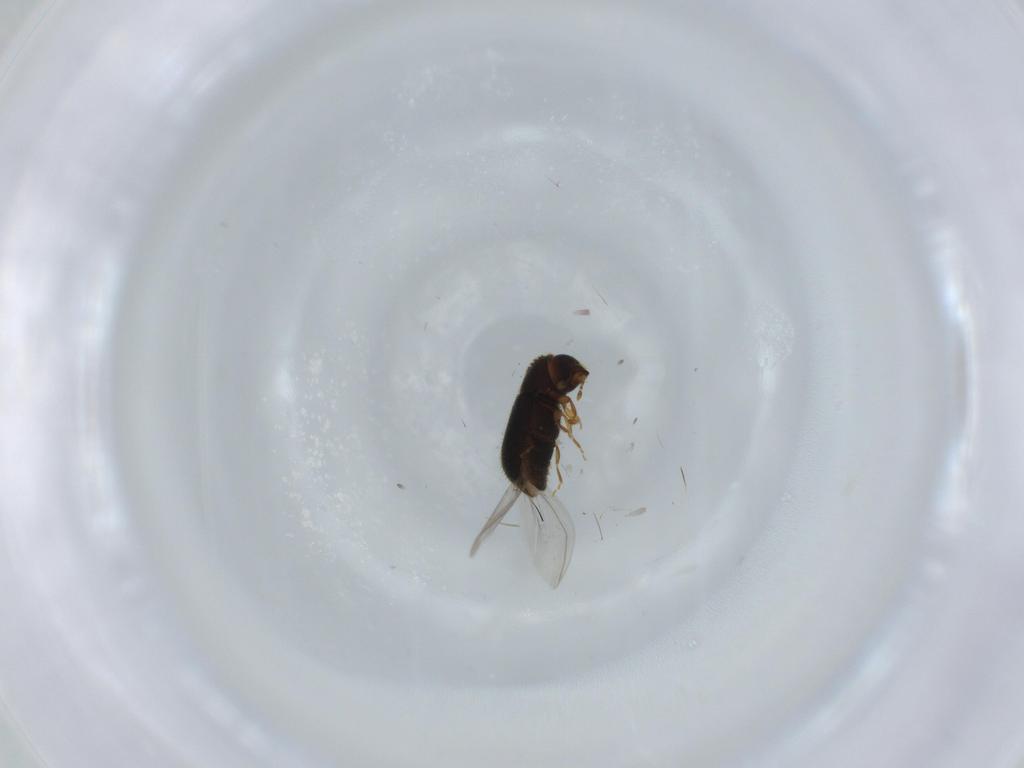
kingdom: Animalia
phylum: Arthropoda
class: Insecta
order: Coleoptera
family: Curculionidae
